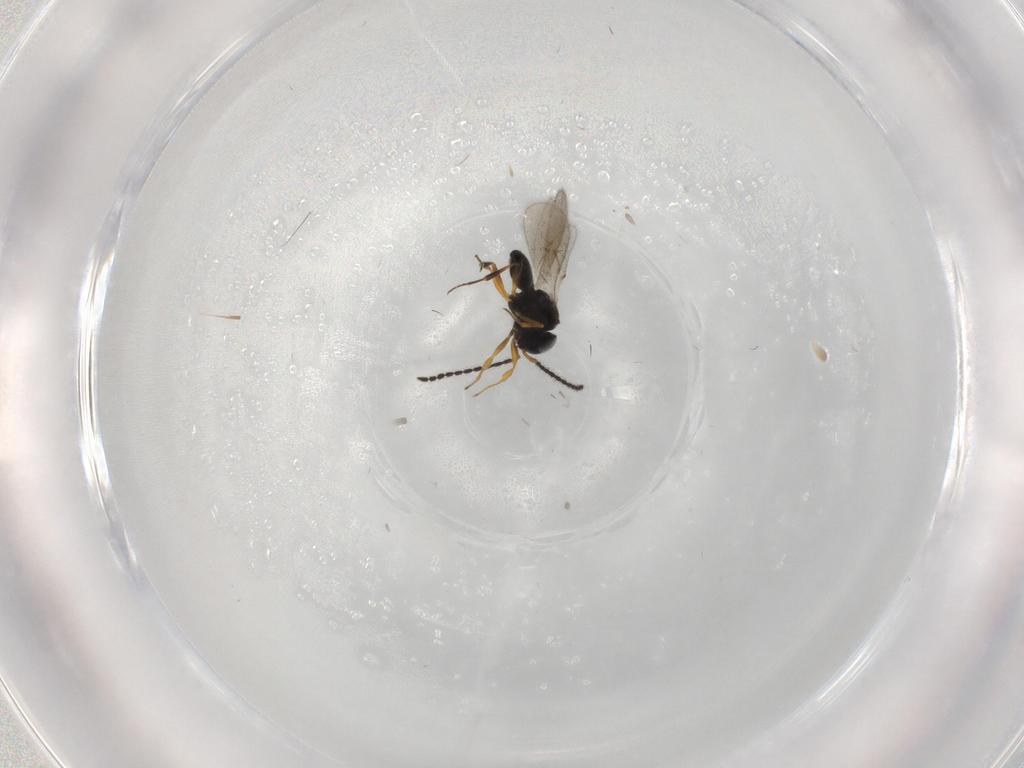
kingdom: Animalia
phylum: Arthropoda
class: Insecta
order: Hymenoptera
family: Scelionidae
